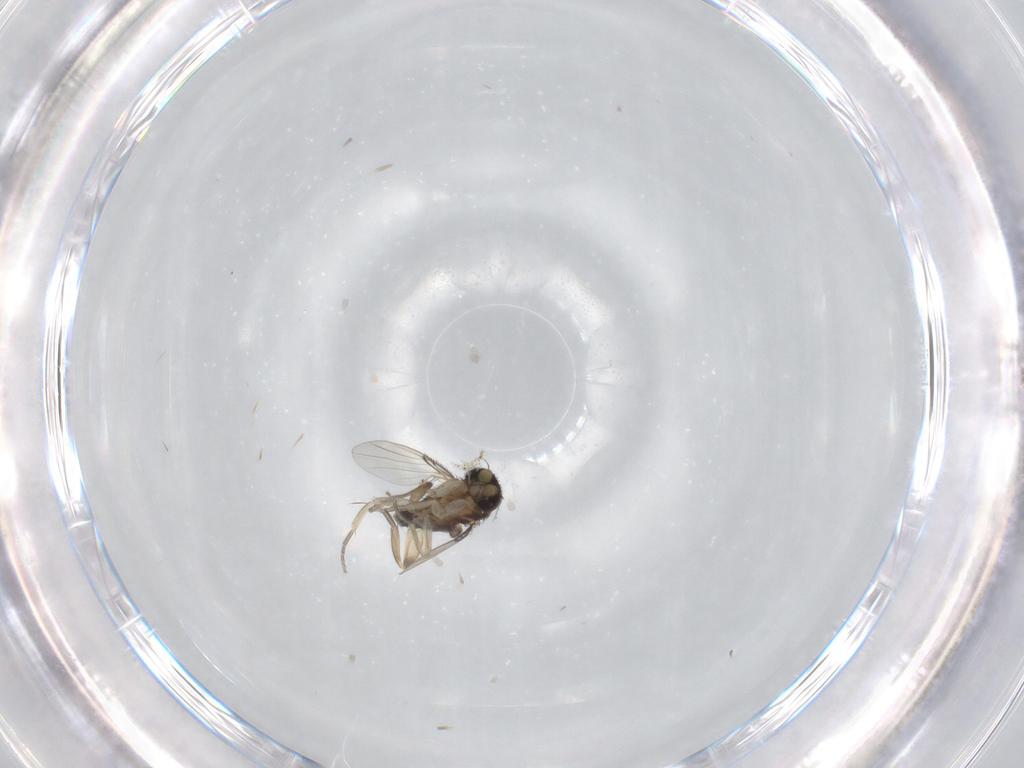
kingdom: Animalia
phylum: Arthropoda
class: Insecta
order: Diptera
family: Phoridae
